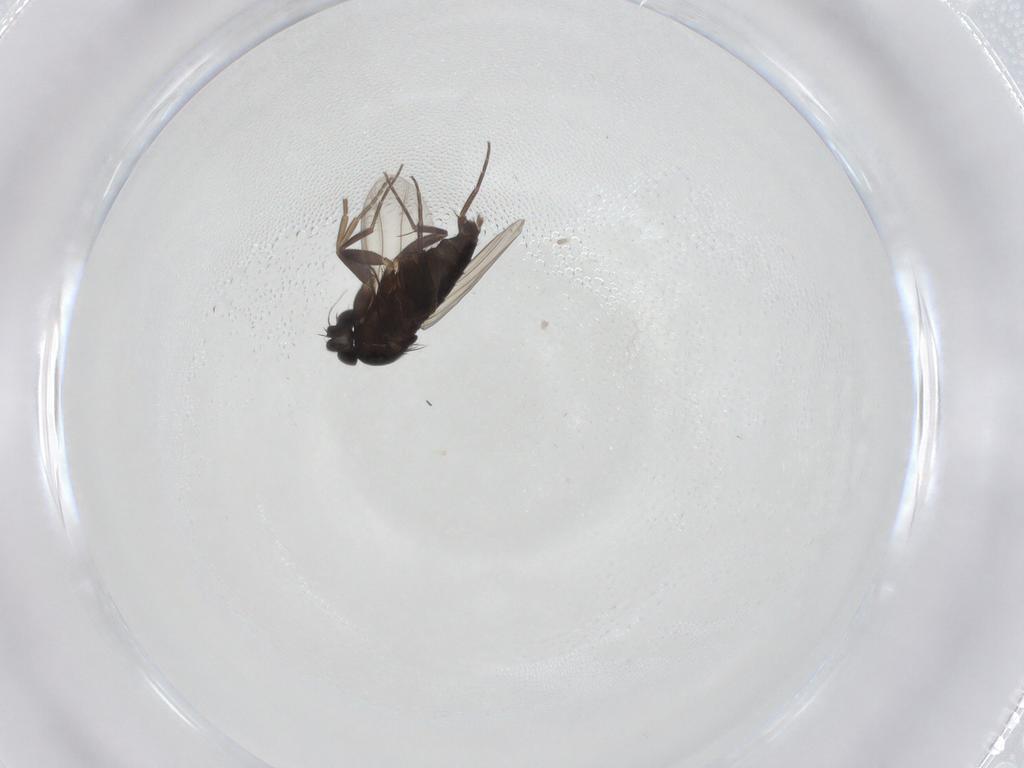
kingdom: Animalia
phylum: Arthropoda
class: Insecta
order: Diptera
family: Phoridae
